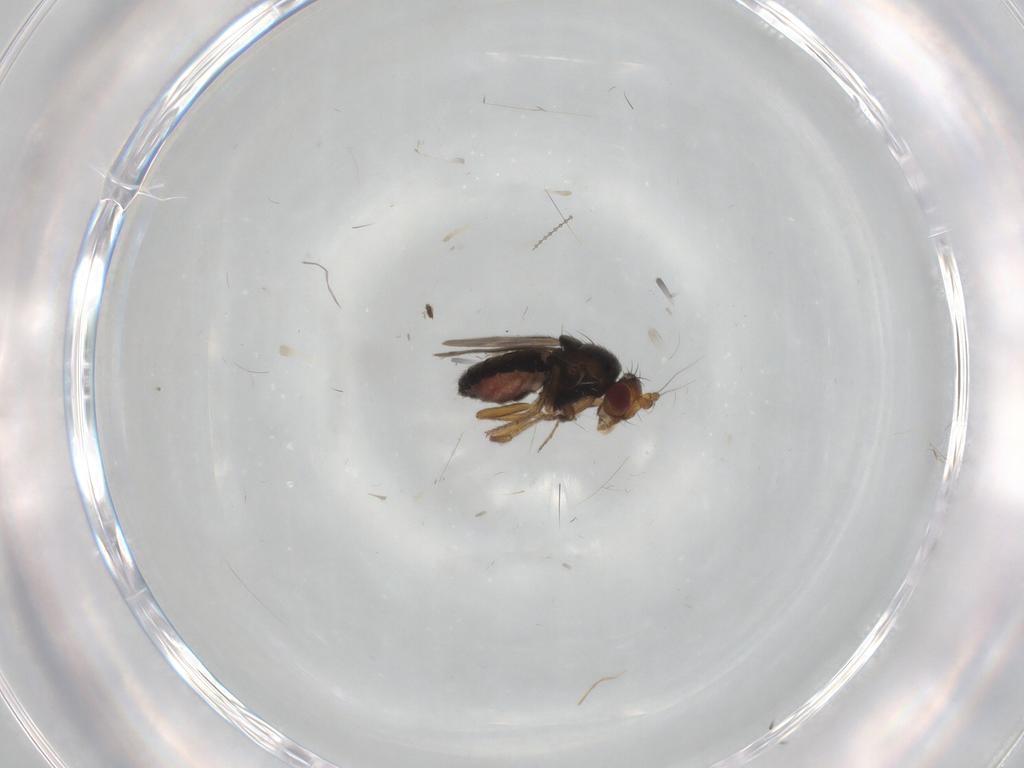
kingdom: Animalia
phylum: Arthropoda
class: Insecta
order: Diptera
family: Sphaeroceridae
